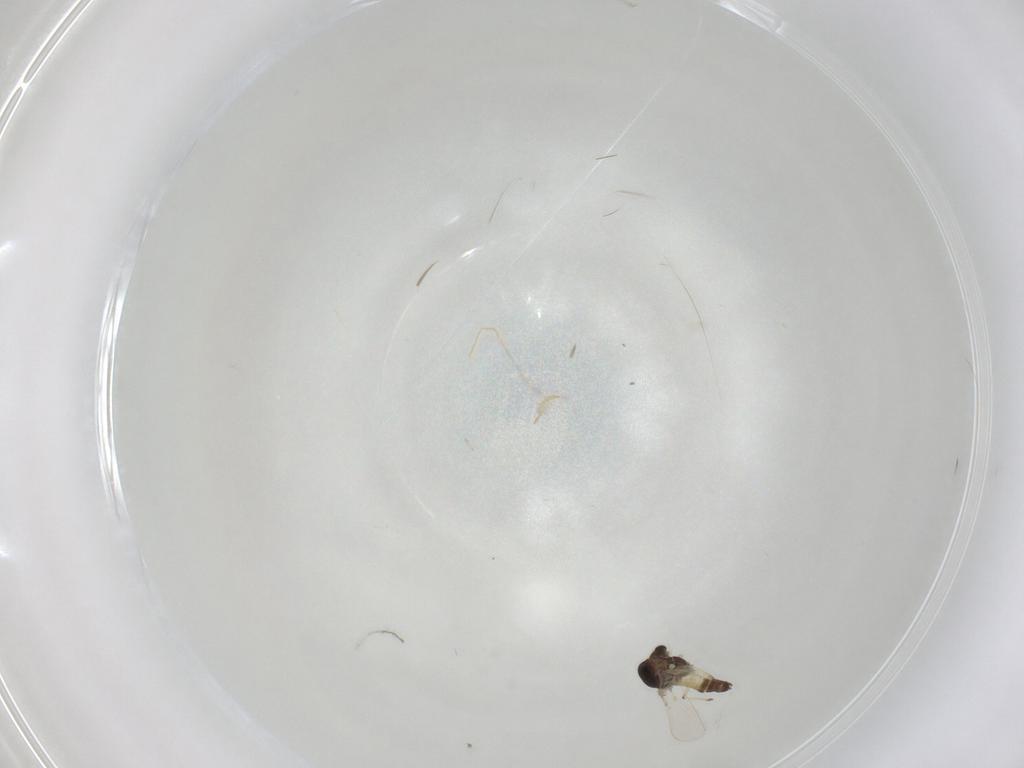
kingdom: Animalia
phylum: Arthropoda
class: Insecta
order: Diptera
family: Chironomidae
